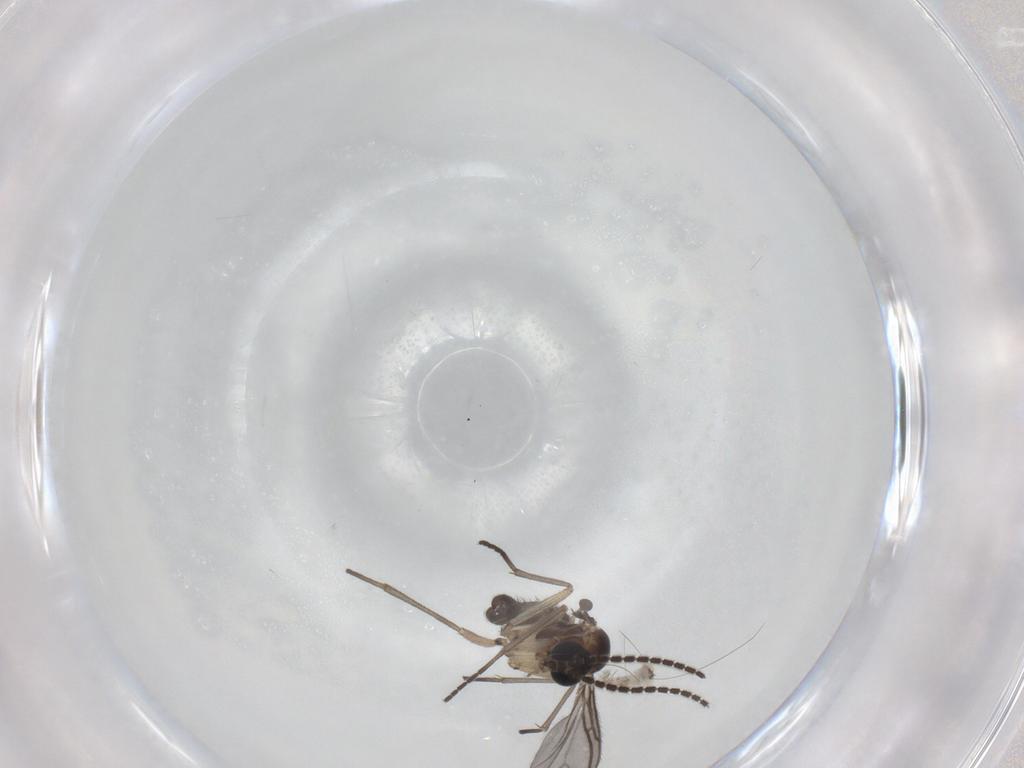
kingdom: Animalia
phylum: Arthropoda
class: Insecta
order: Diptera
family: Sciaridae
